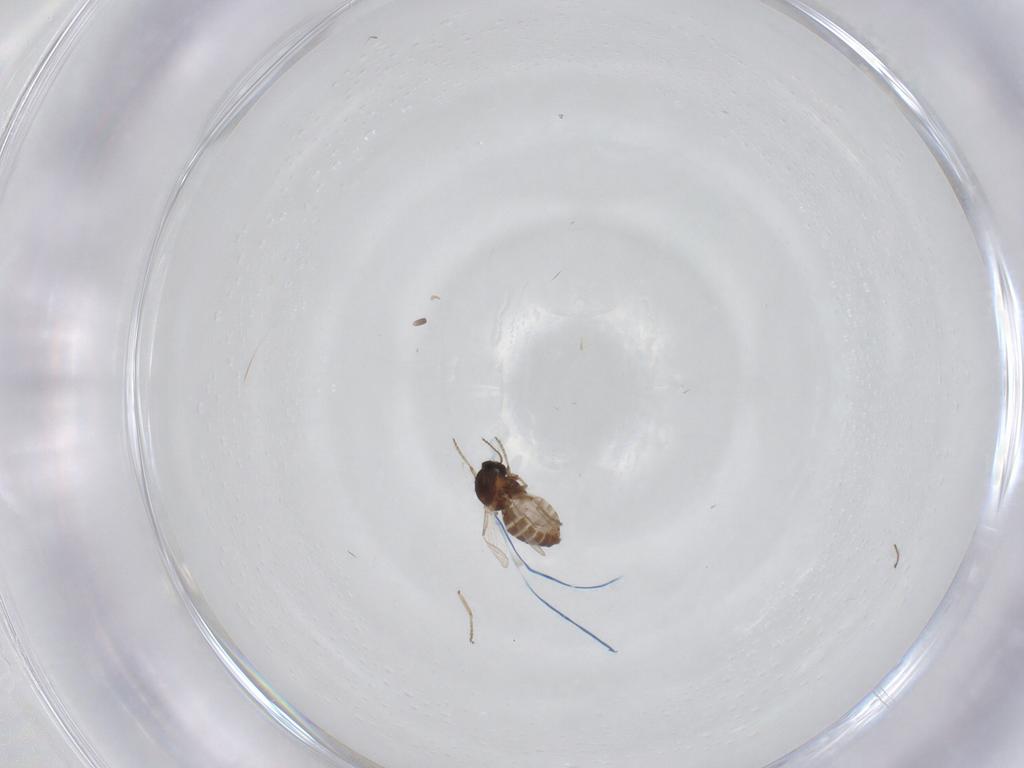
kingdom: Animalia
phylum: Arthropoda
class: Insecta
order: Diptera
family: Ceratopogonidae
